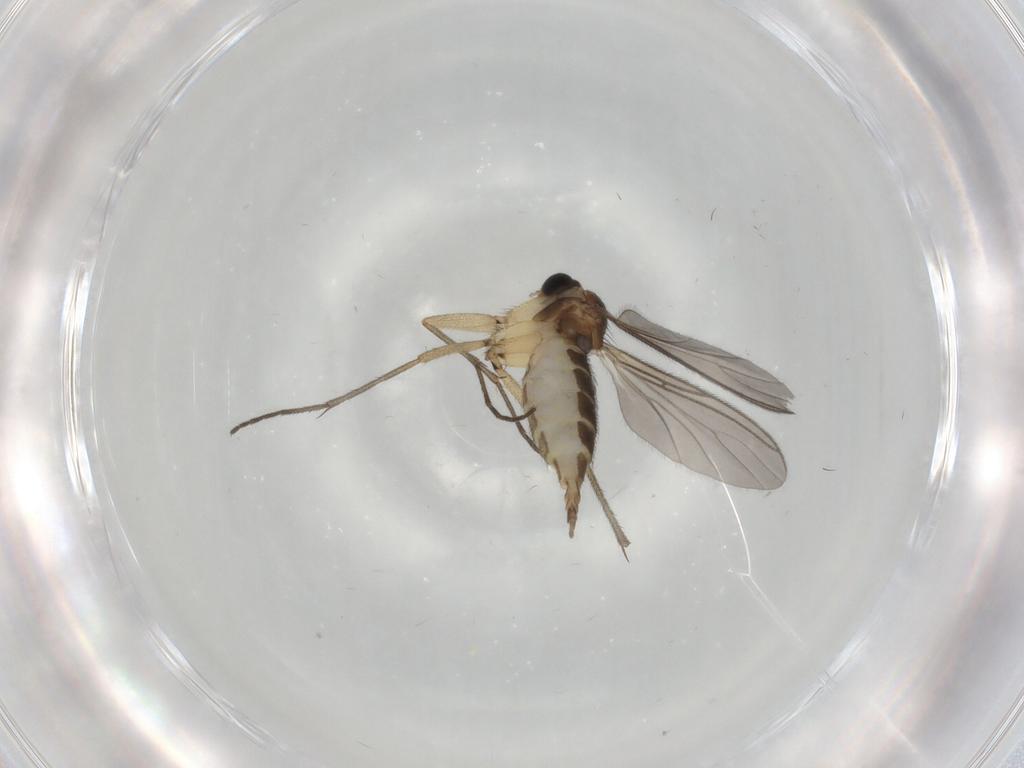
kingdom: Animalia
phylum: Arthropoda
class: Insecta
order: Diptera
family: Sciaridae
